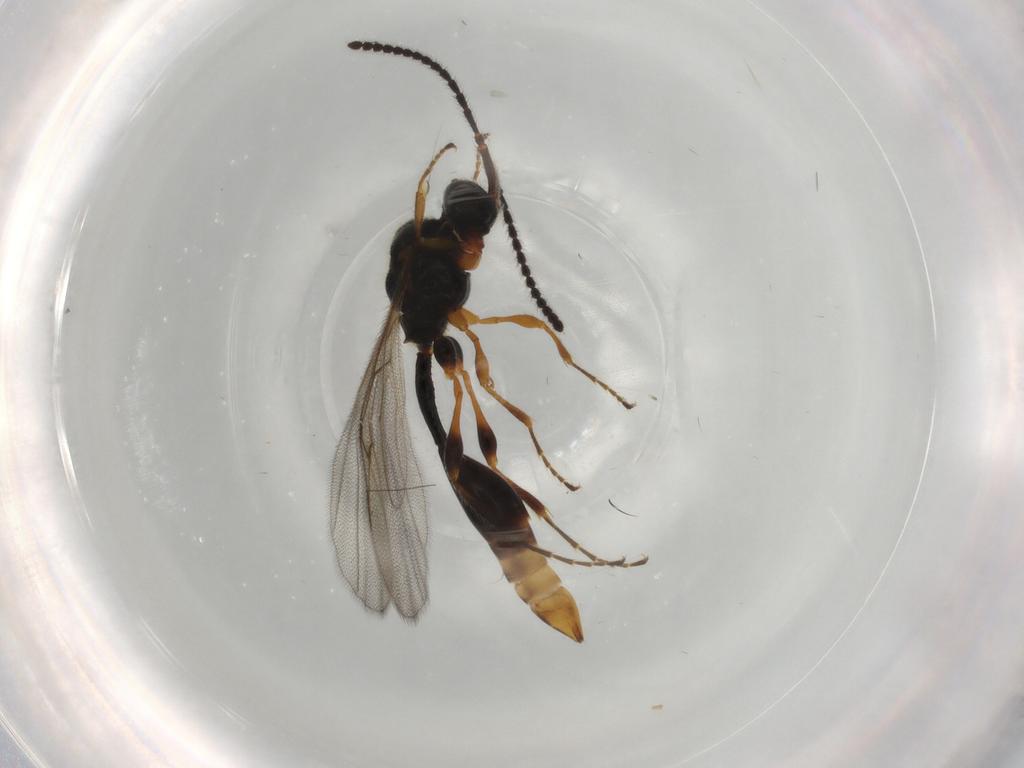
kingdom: Animalia
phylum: Arthropoda
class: Insecta
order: Hymenoptera
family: Diapriidae
